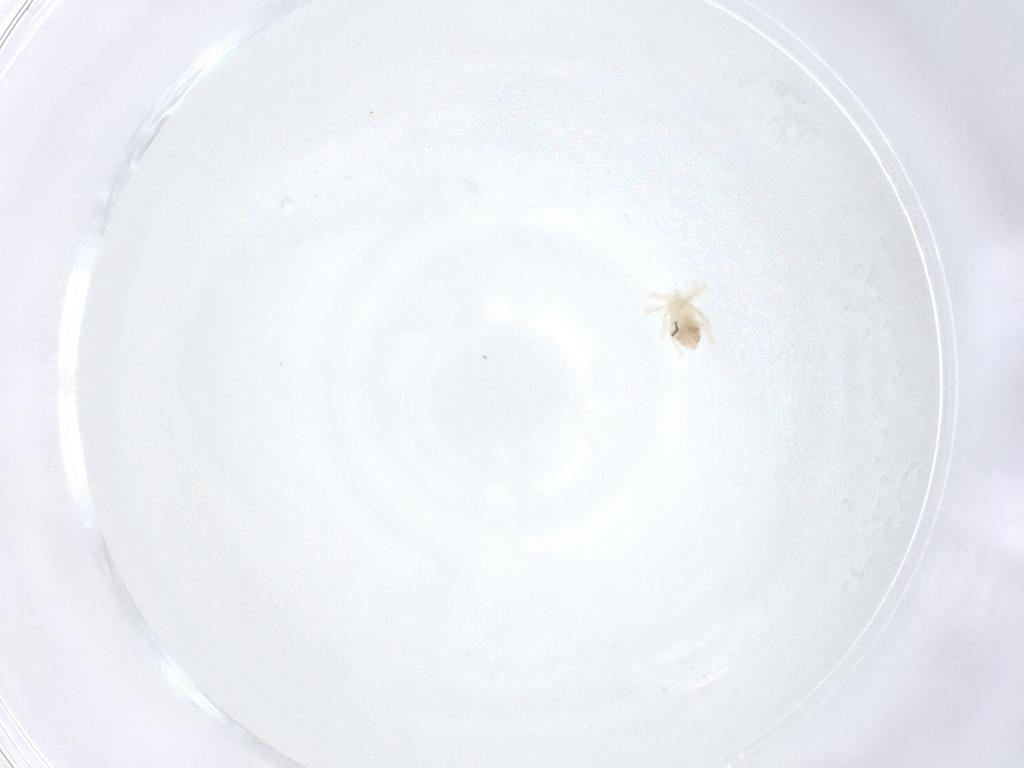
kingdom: Animalia
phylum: Arthropoda
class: Arachnida
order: Trombidiformes
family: Anystidae
